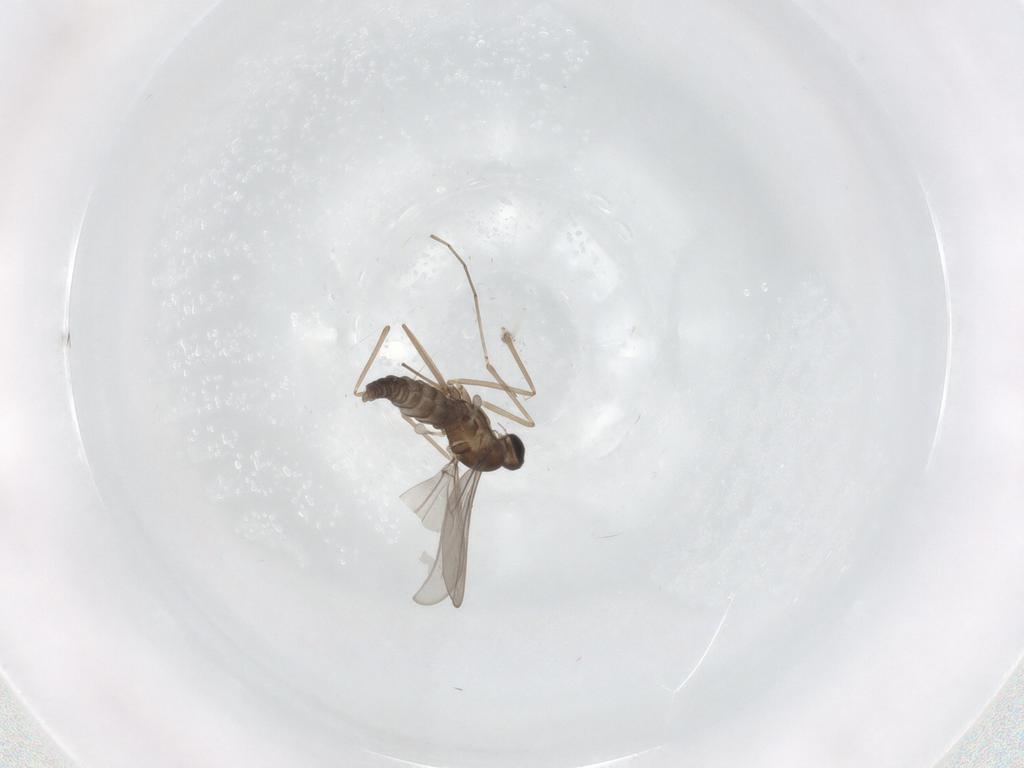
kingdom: Animalia
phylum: Arthropoda
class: Insecta
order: Diptera
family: Cecidomyiidae
